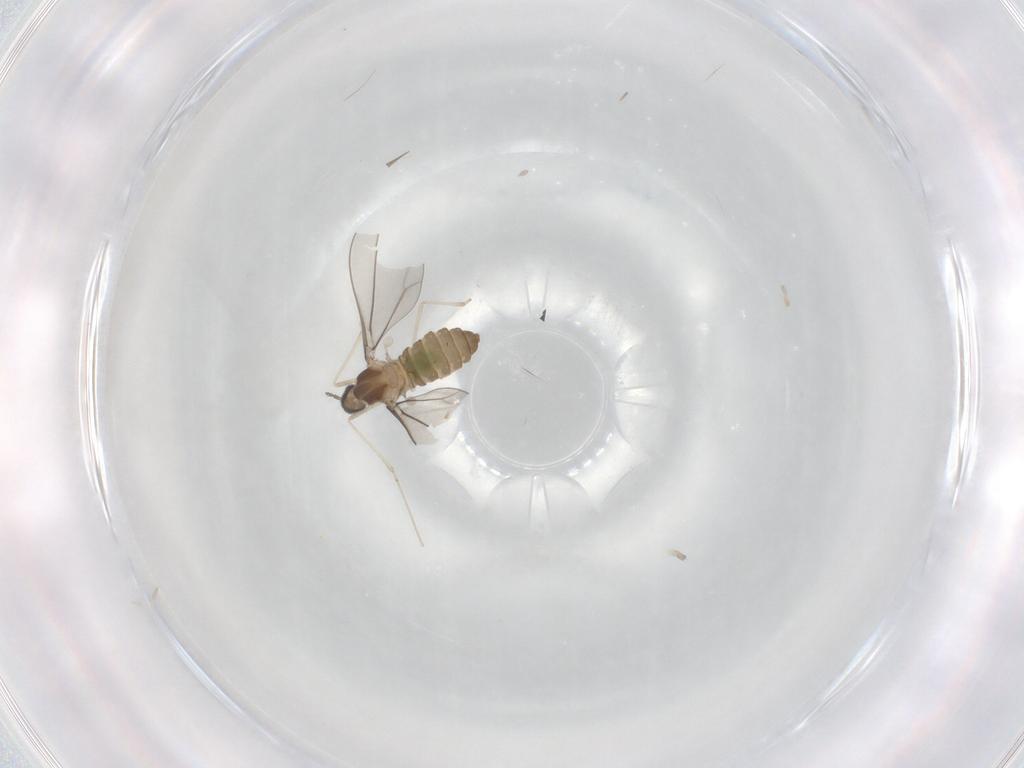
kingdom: Animalia
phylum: Arthropoda
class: Insecta
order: Diptera
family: Cecidomyiidae
